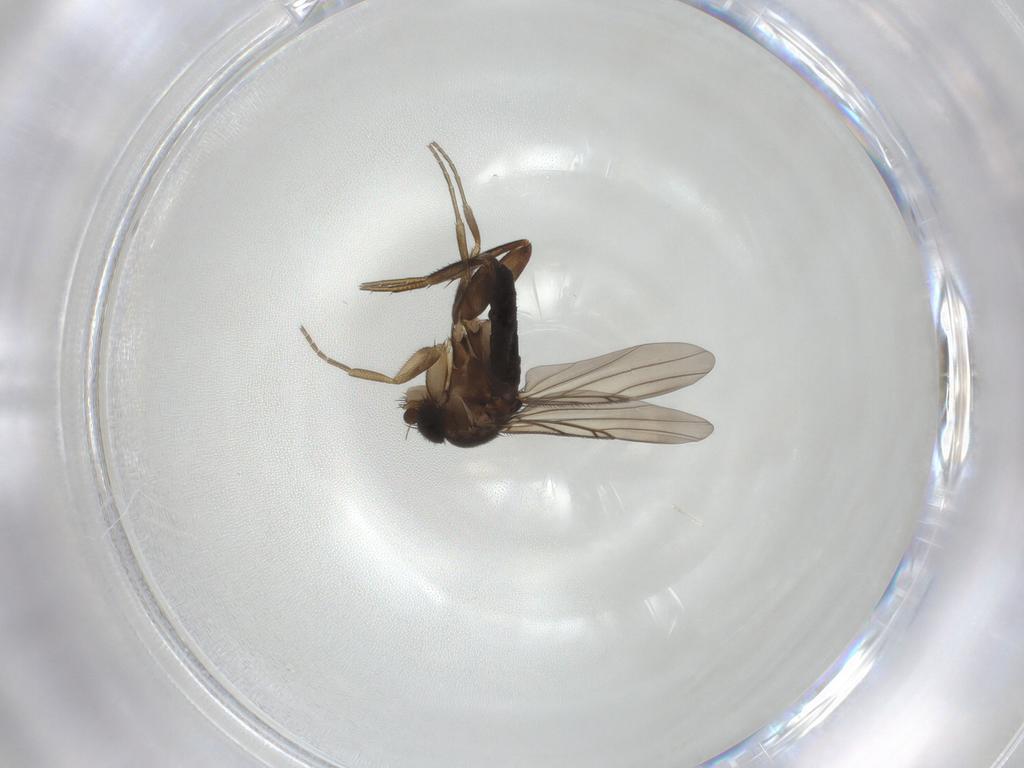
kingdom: Animalia
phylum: Arthropoda
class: Insecta
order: Diptera
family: Phoridae
